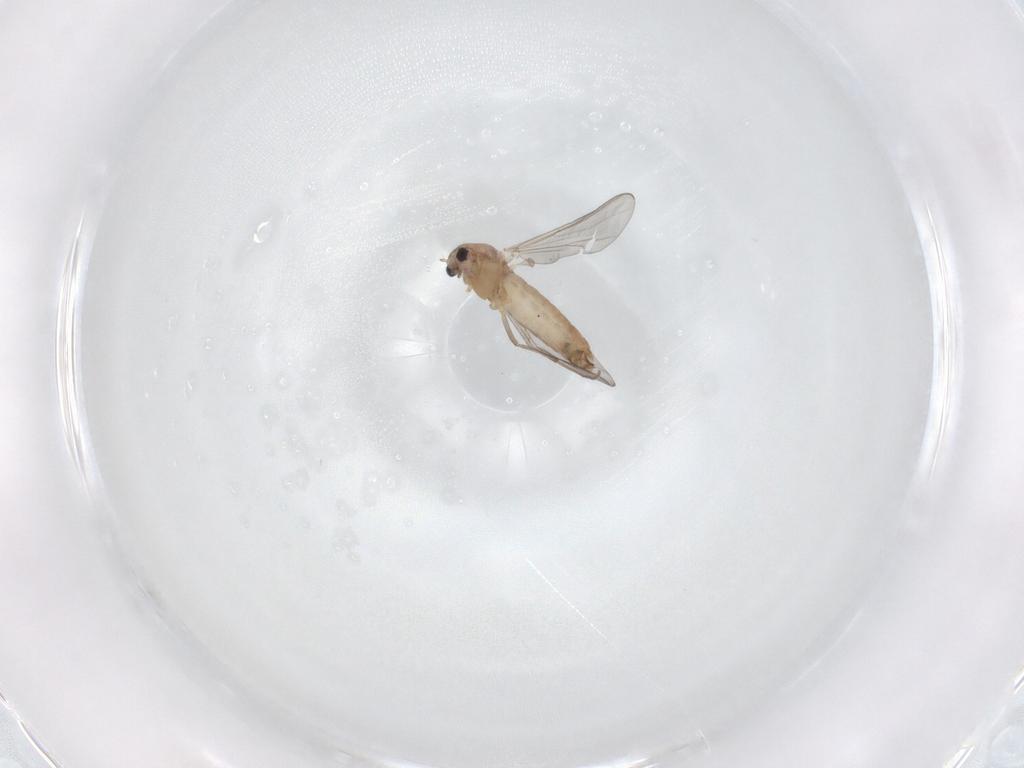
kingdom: Animalia
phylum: Arthropoda
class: Insecta
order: Diptera
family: Chironomidae
